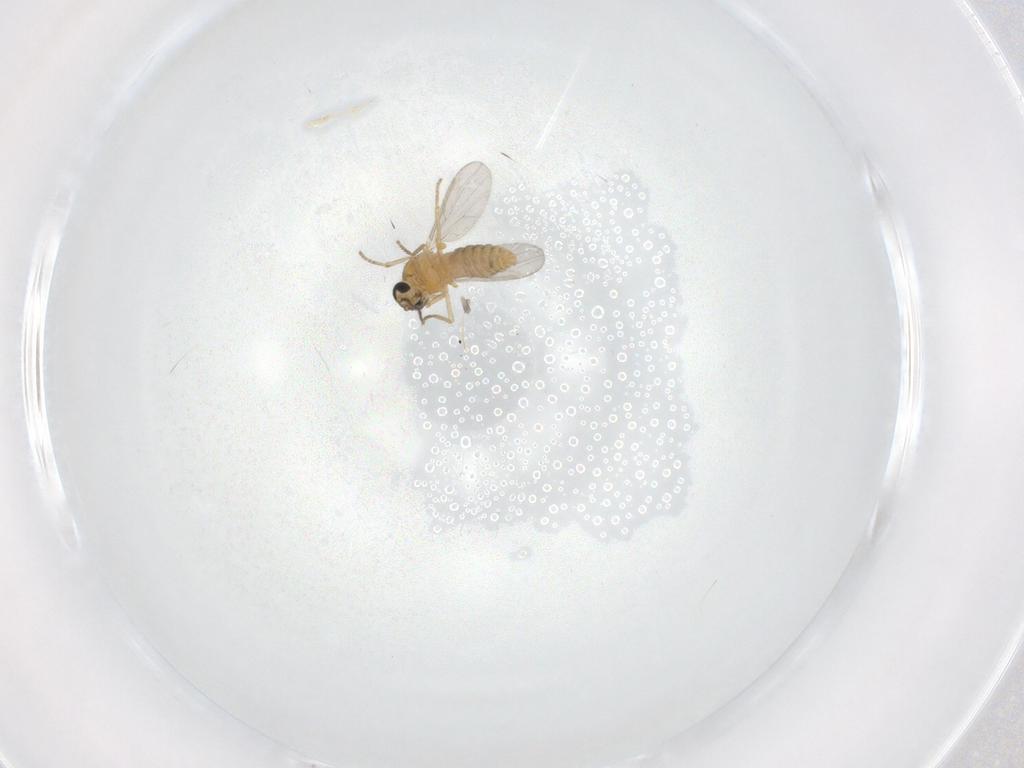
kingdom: Animalia
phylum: Arthropoda
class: Insecta
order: Diptera
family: Ceratopogonidae
